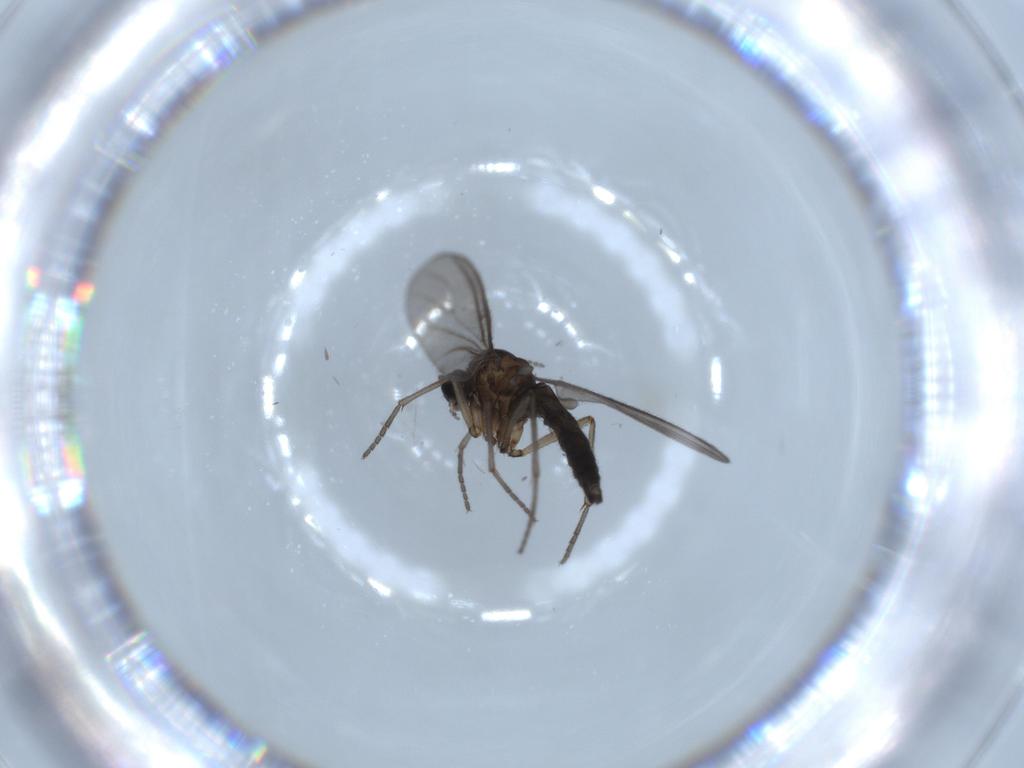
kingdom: Animalia
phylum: Arthropoda
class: Insecta
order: Diptera
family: Sciaridae
